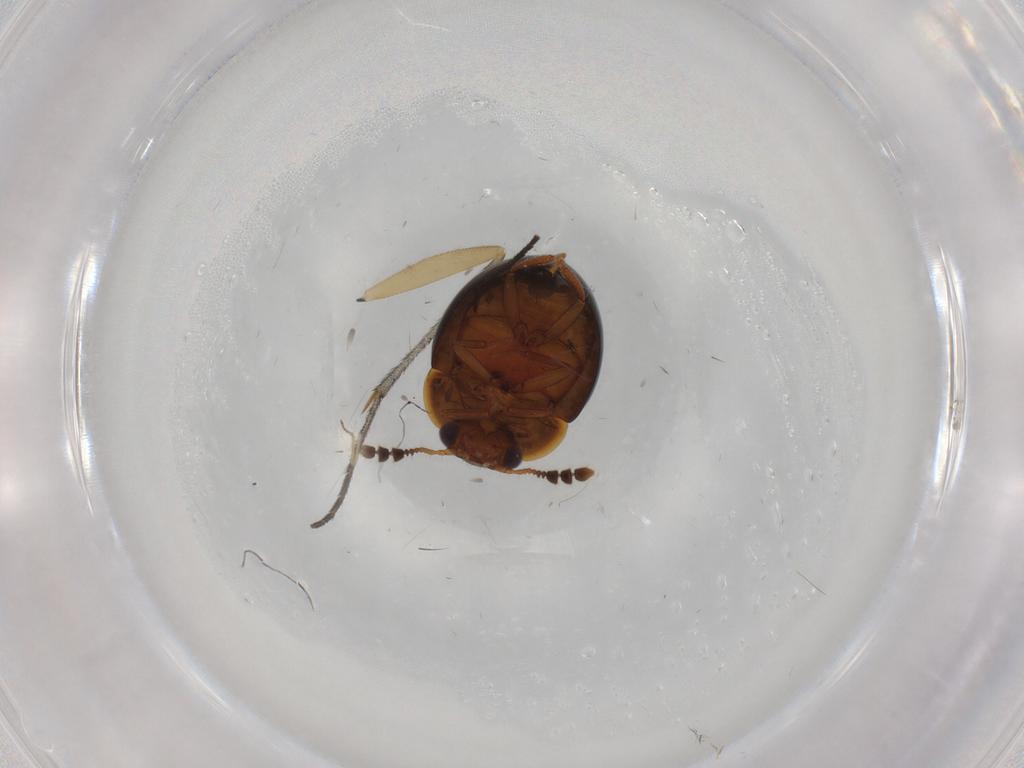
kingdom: Animalia
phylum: Arthropoda
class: Insecta
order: Coleoptera
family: Leiodidae
